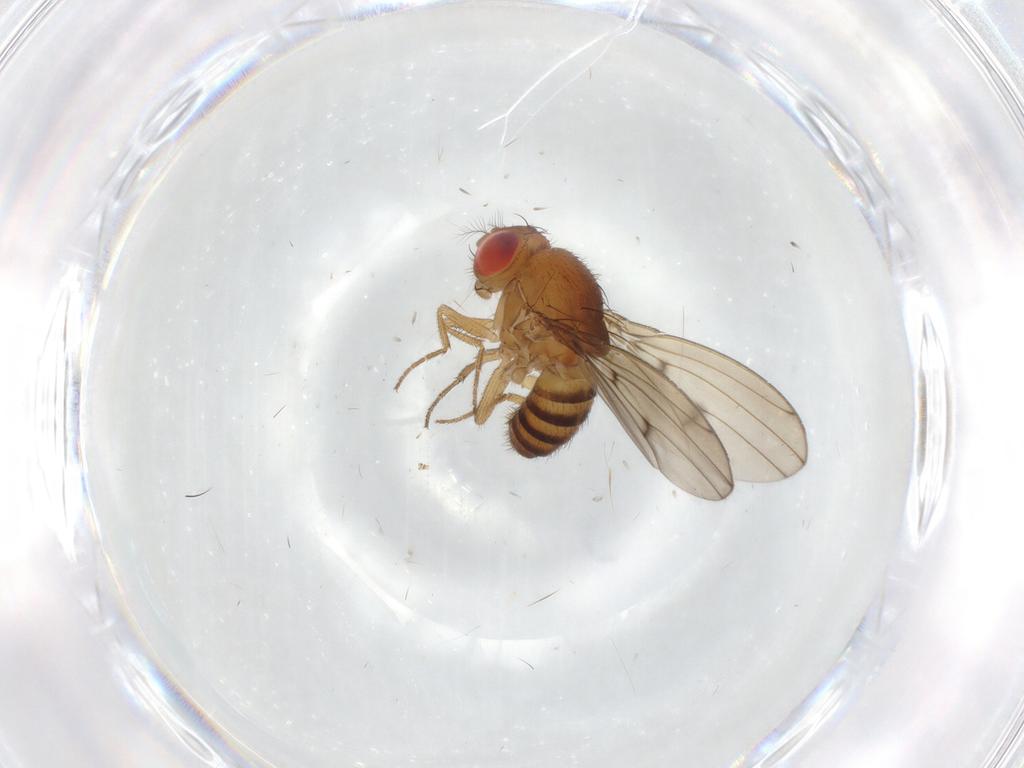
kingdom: Animalia
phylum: Arthropoda
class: Insecta
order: Diptera
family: Drosophilidae
